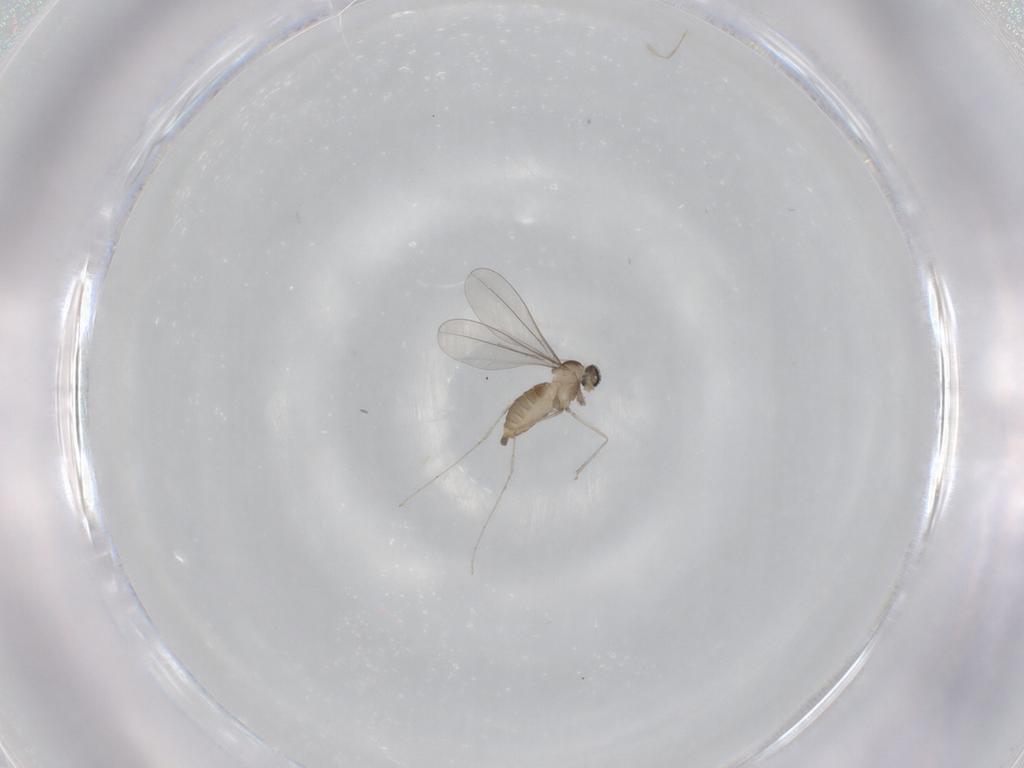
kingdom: Animalia
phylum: Arthropoda
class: Insecta
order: Diptera
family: Cecidomyiidae
